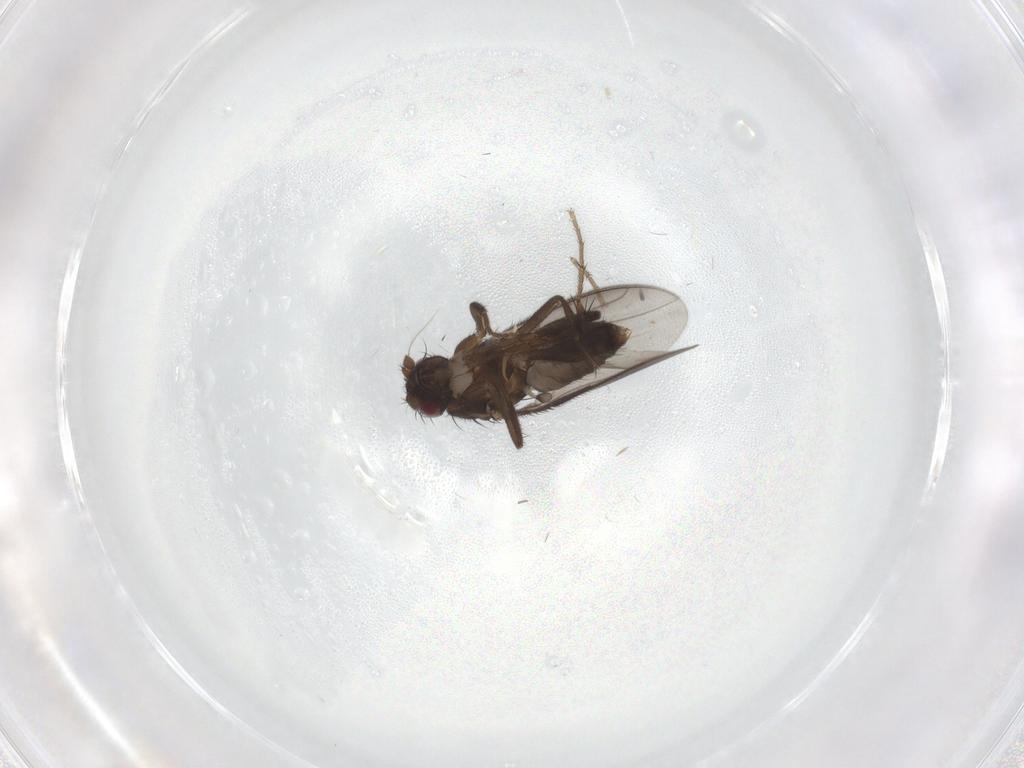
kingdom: Animalia
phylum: Arthropoda
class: Insecta
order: Diptera
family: Sphaeroceridae
